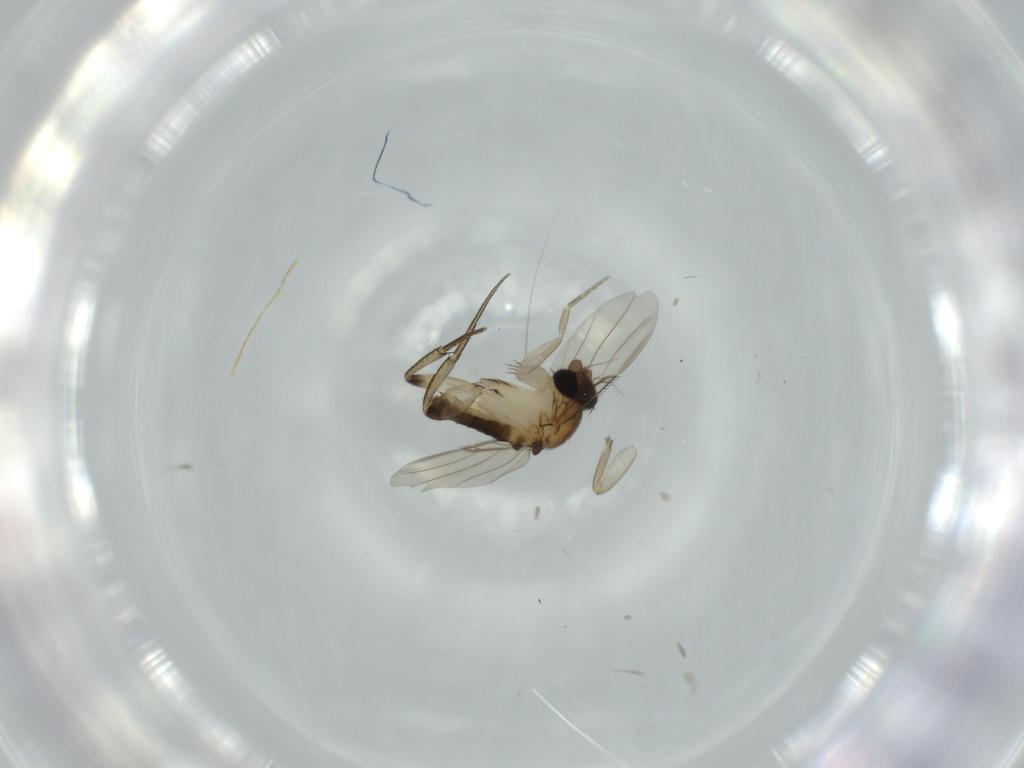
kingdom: Animalia
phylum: Arthropoda
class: Insecta
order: Diptera
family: Phoridae
